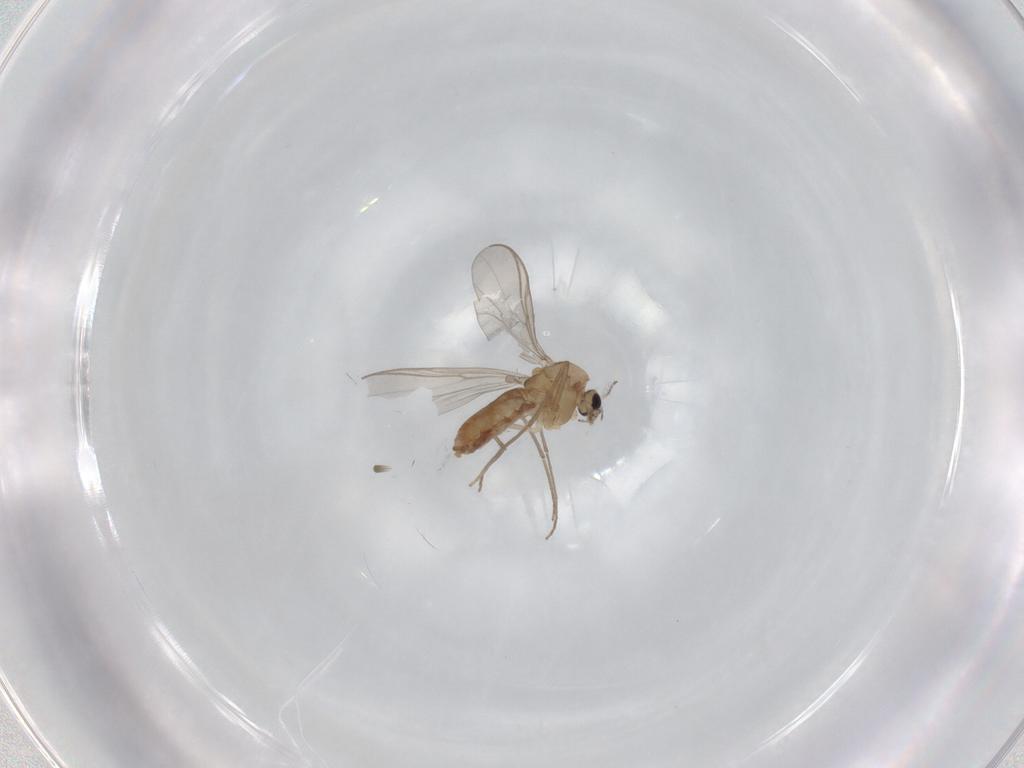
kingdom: Animalia
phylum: Arthropoda
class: Insecta
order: Diptera
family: Chironomidae
